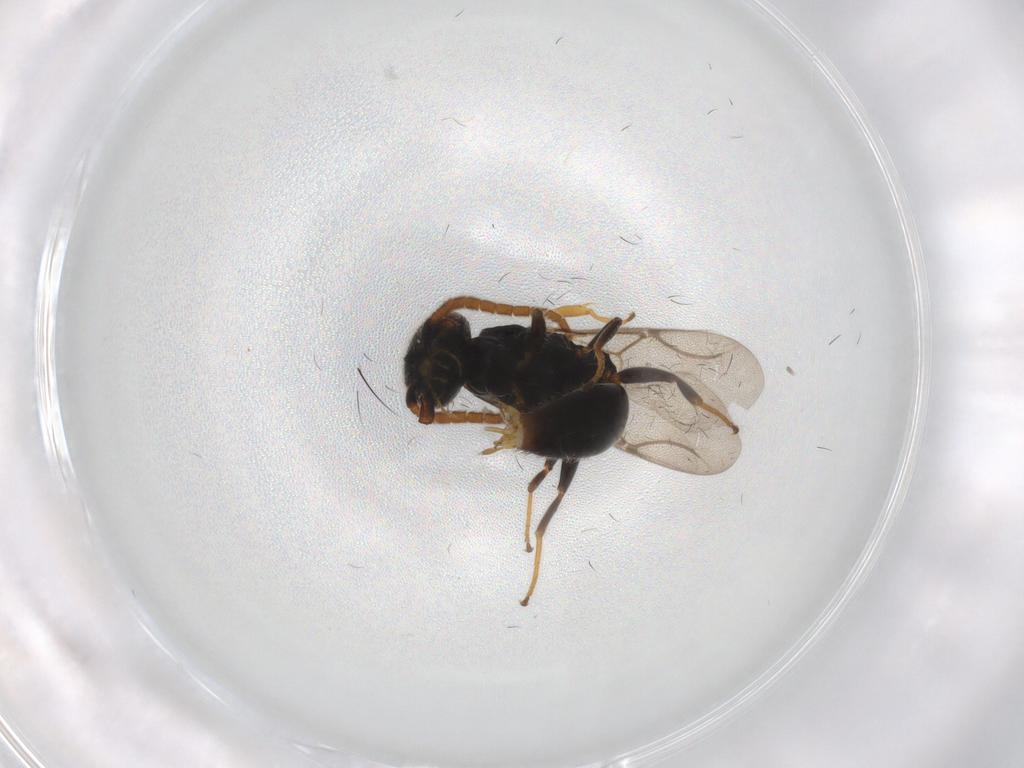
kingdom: Animalia
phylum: Arthropoda
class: Insecta
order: Hymenoptera
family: Bethylidae
